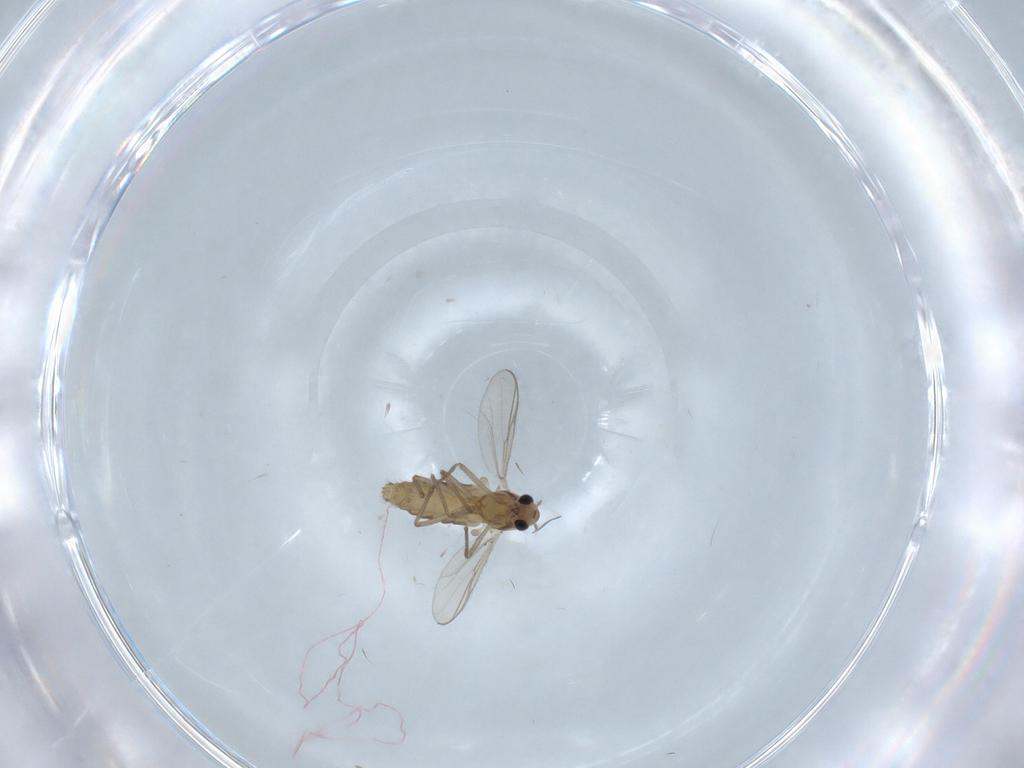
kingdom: Animalia
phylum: Arthropoda
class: Insecta
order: Diptera
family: Chironomidae
